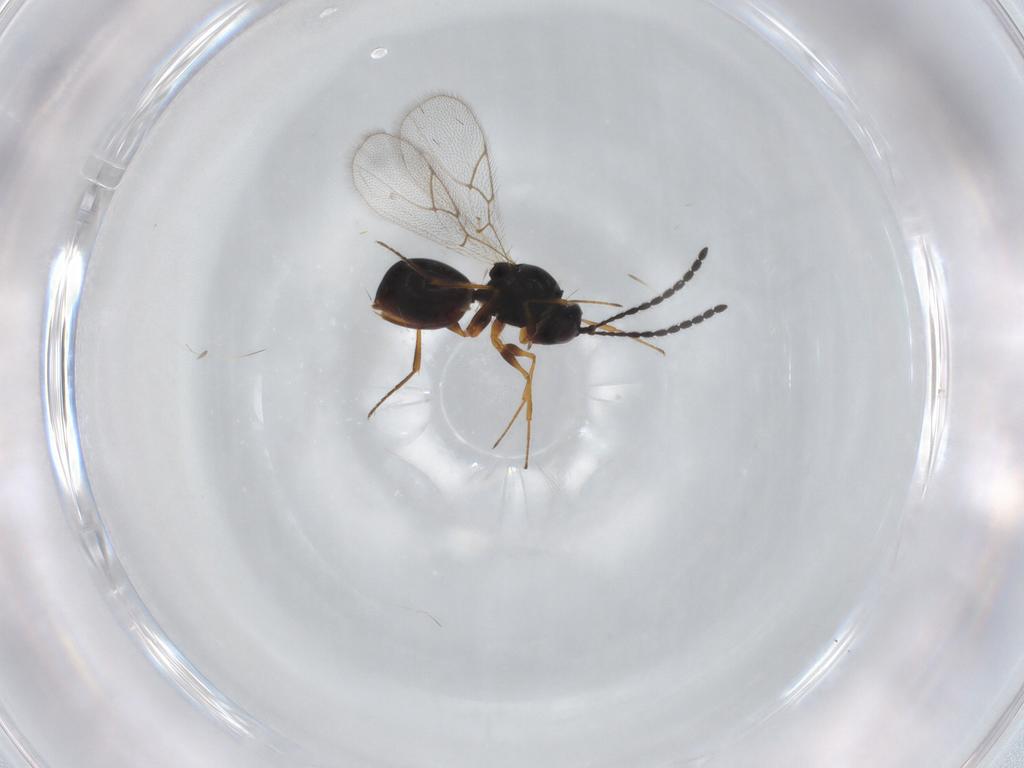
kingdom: Animalia
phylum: Arthropoda
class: Insecta
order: Hymenoptera
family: Figitidae
